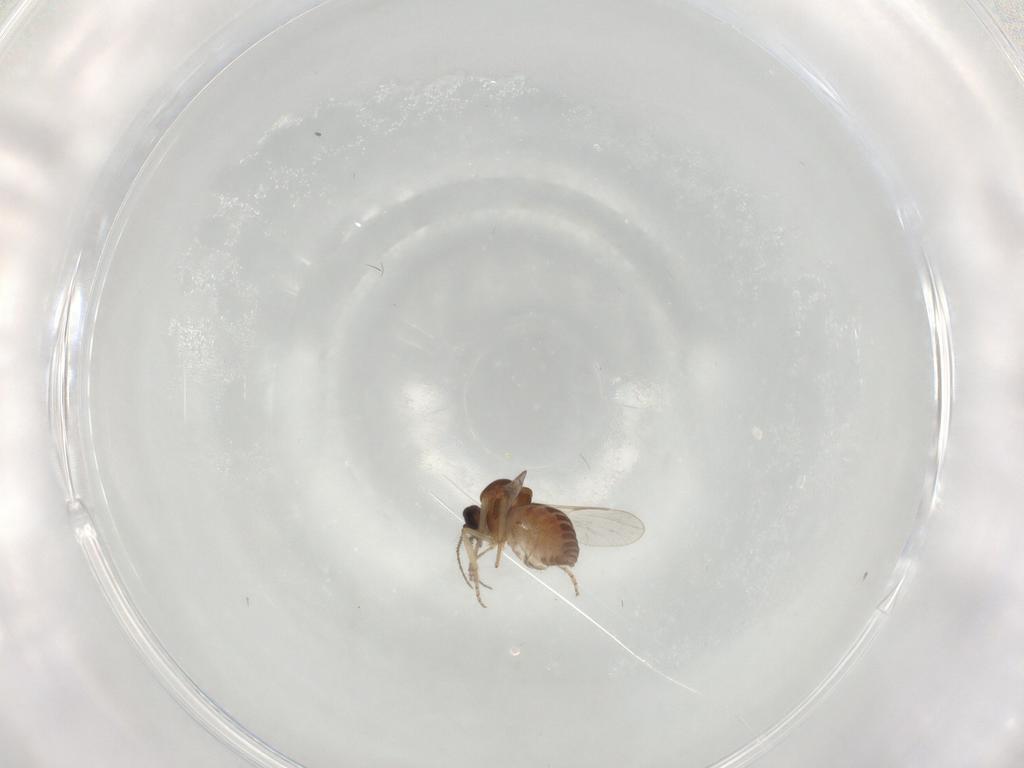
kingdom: Animalia
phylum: Arthropoda
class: Insecta
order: Diptera
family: Ceratopogonidae
